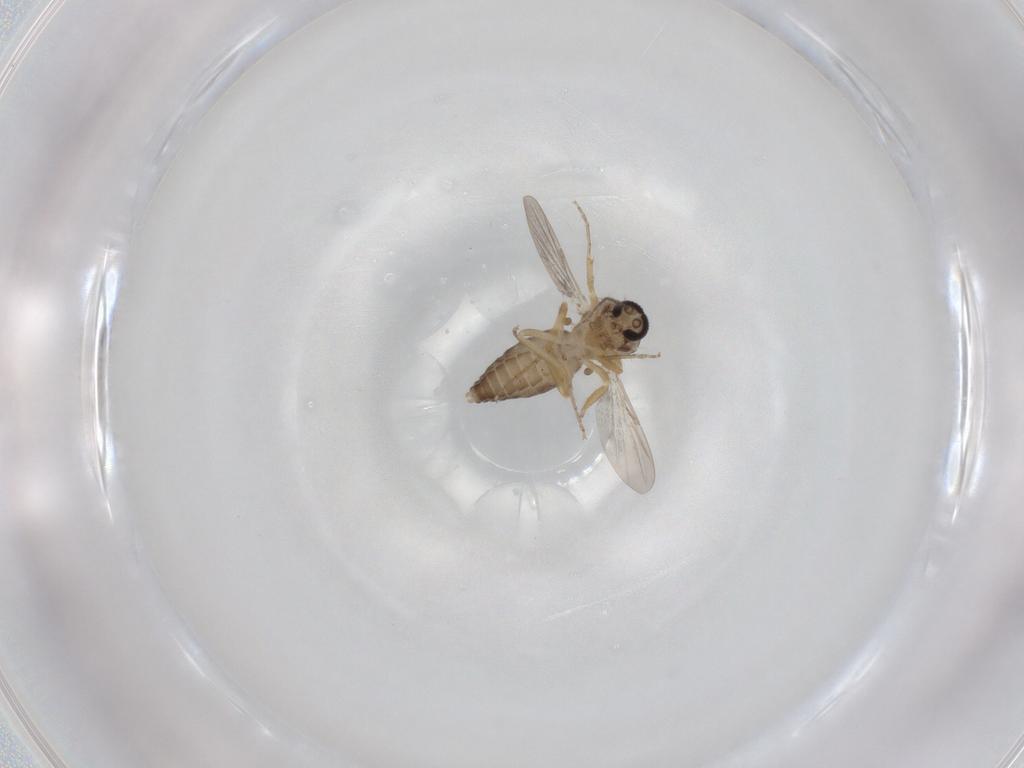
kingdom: Animalia
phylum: Arthropoda
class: Insecta
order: Diptera
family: Ceratopogonidae
